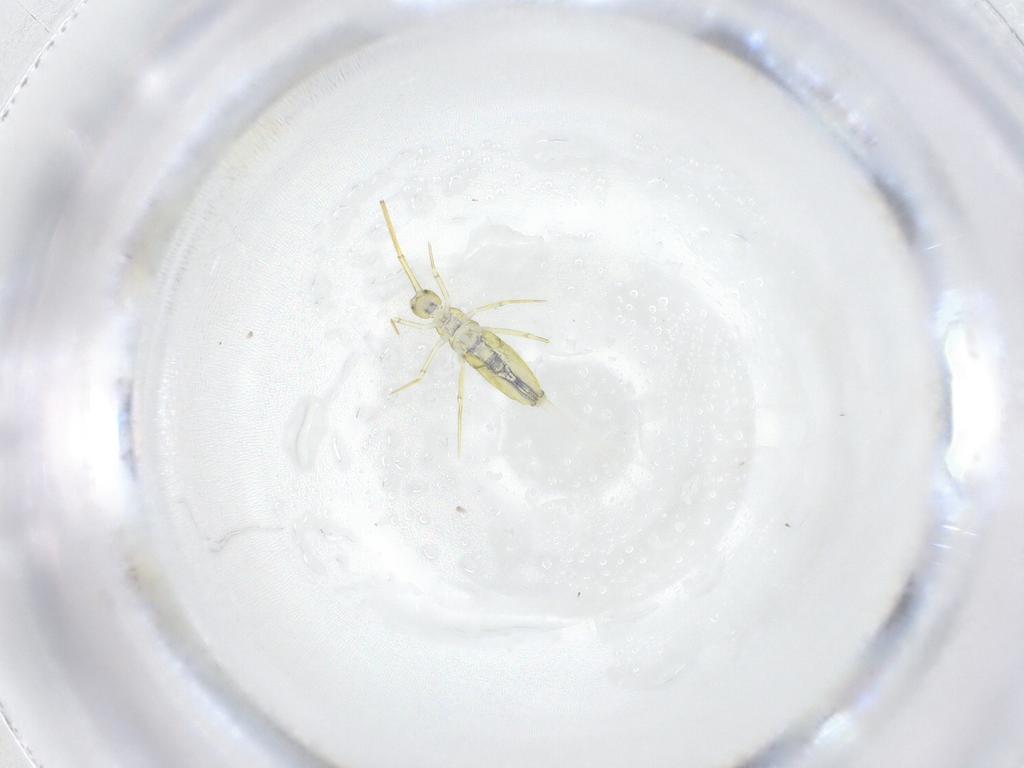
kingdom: Animalia
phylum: Arthropoda
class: Collembola
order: Entomobryomorpha
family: Paronellidae
